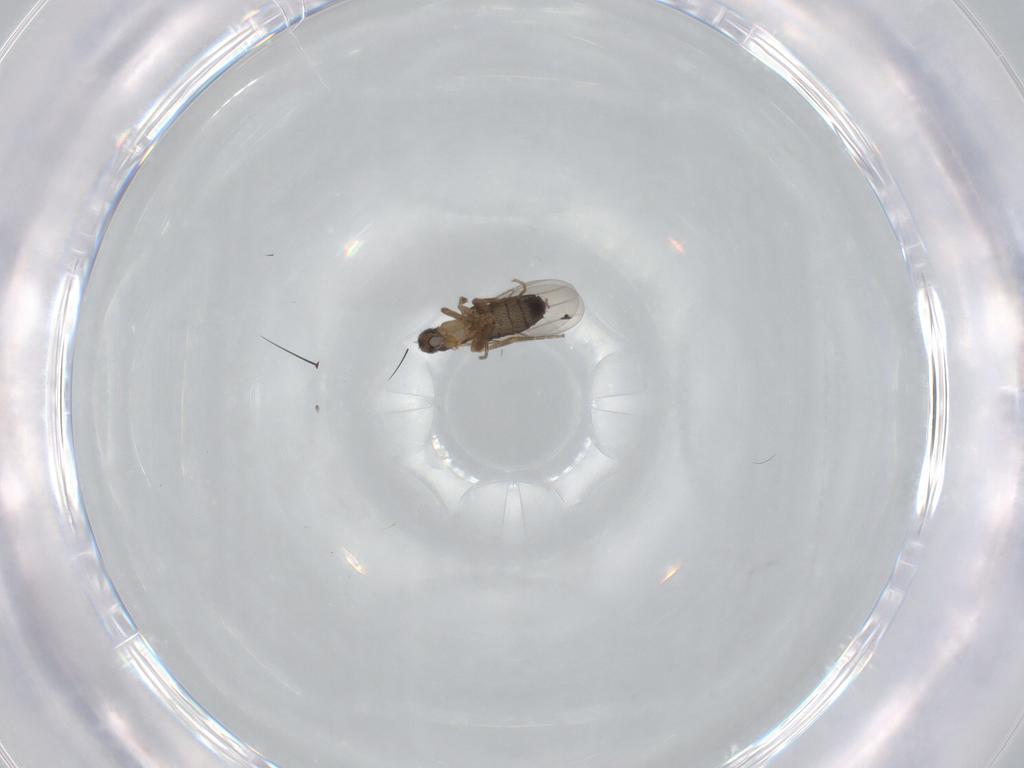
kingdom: Animalia
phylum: Arthropoda
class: Insecta
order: Diptera
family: Phoridae
